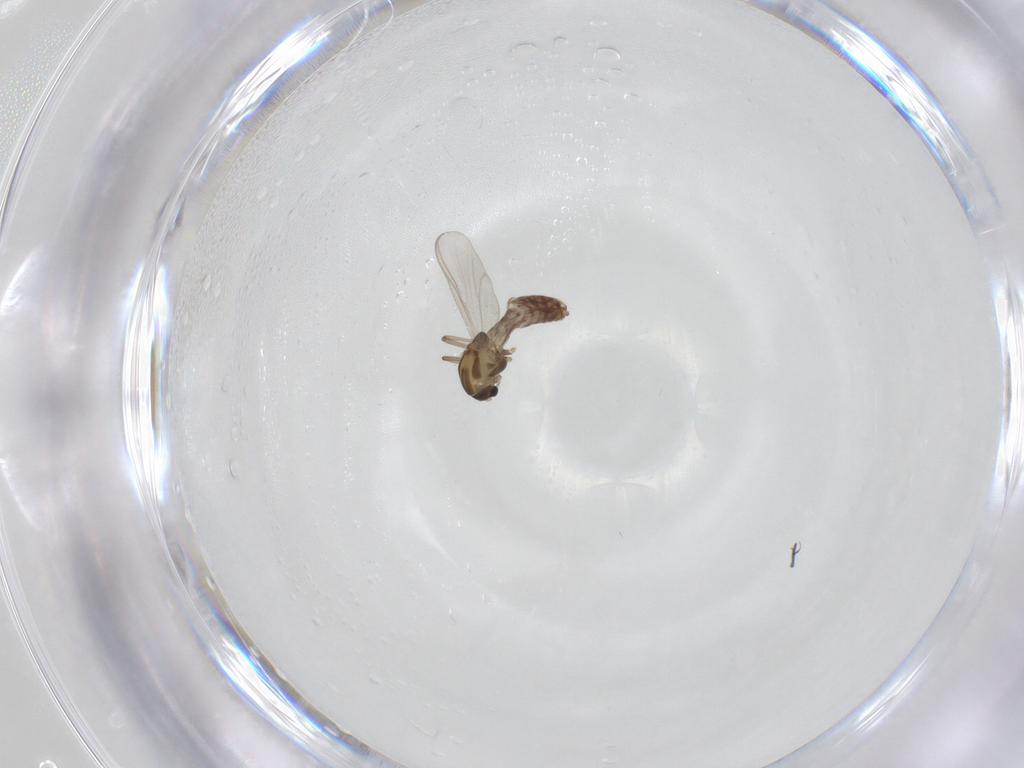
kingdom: Animalia
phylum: Arthropoda
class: Insecta
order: Diptera
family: Chironomidae
